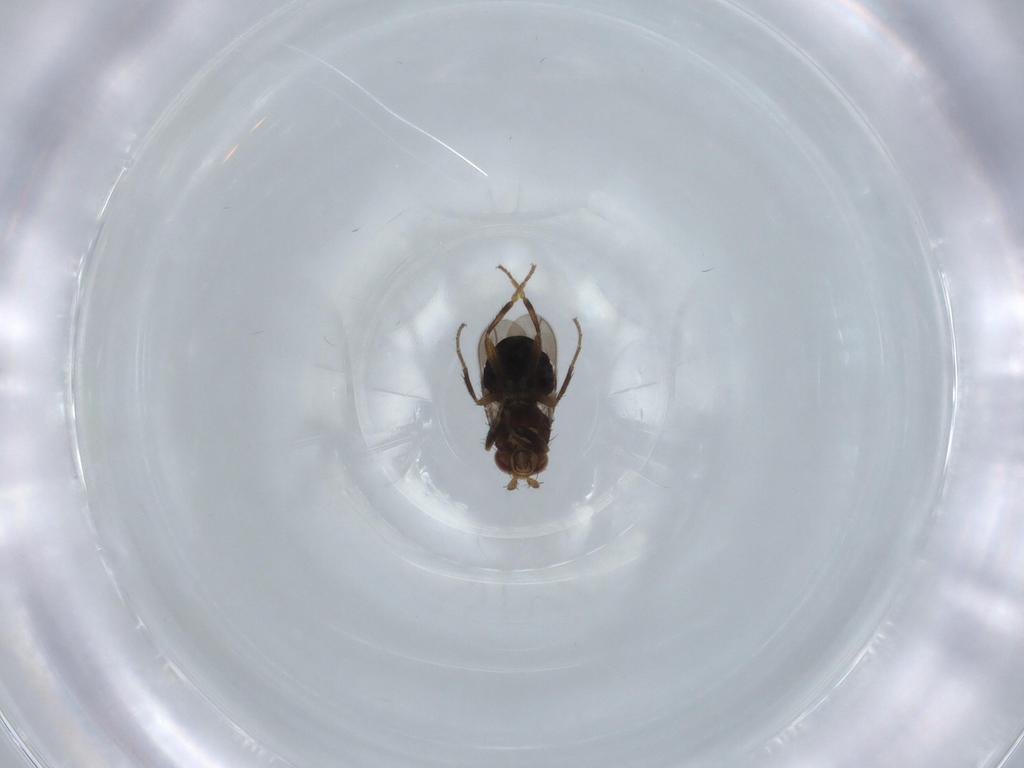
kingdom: Animalia
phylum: Arthropoda
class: Insecta
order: Diptera
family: Sphaeroceridae
